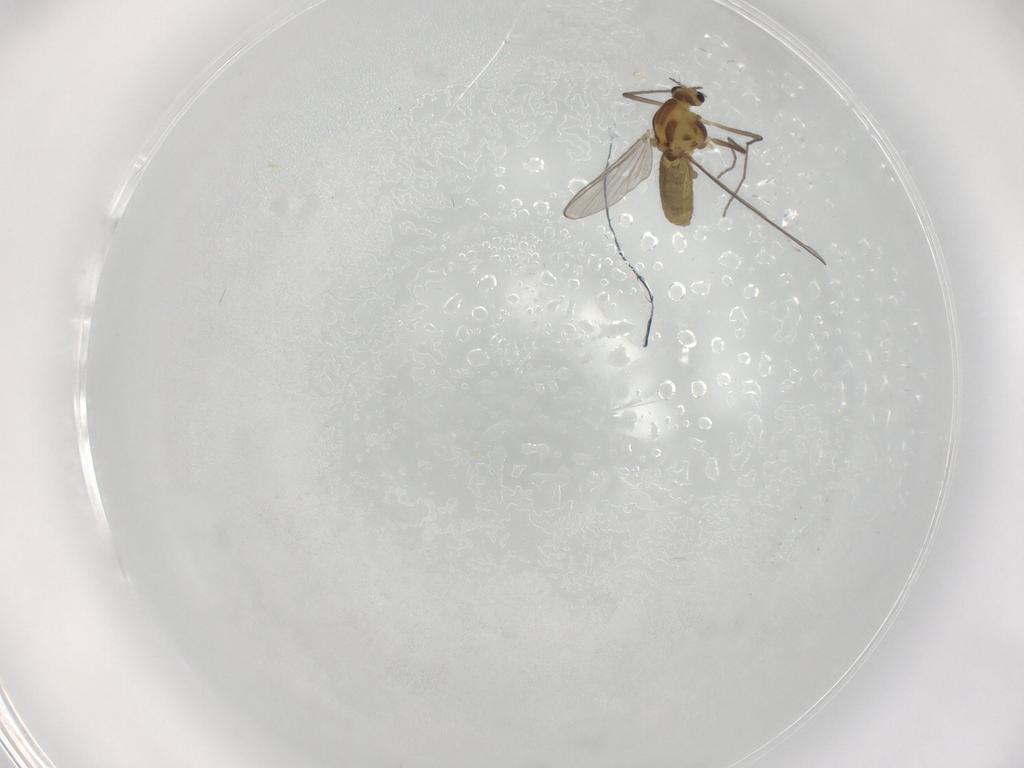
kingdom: Animalia
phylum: Arthropoda
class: Insecta
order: Diptera
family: Chironomidae
